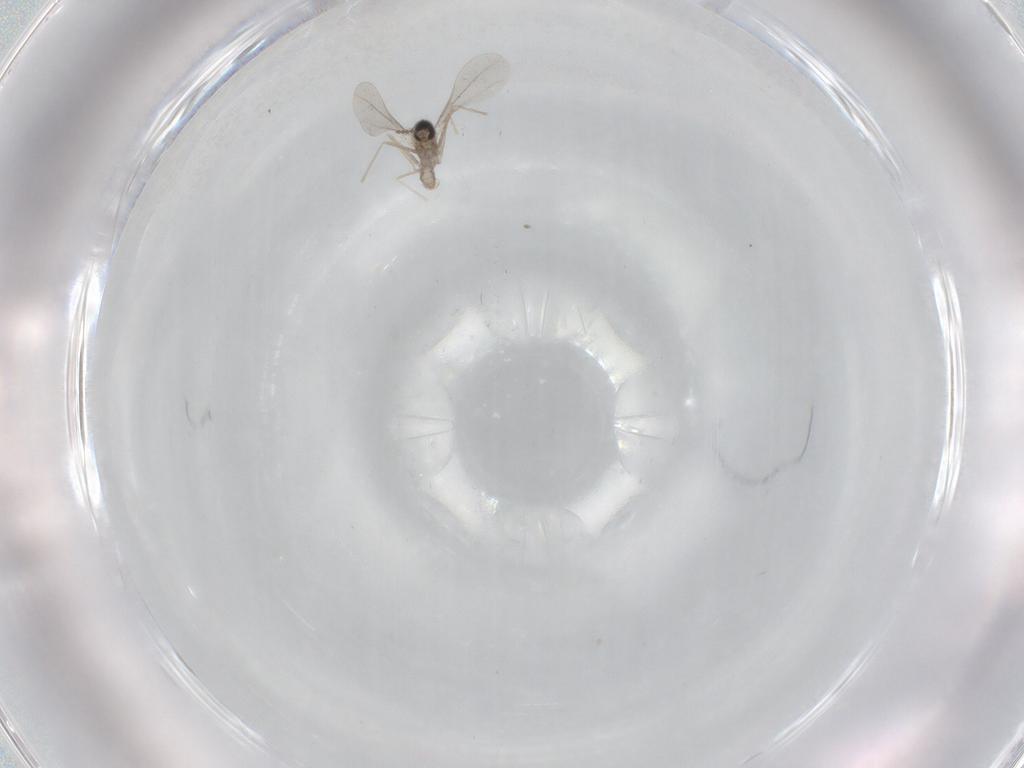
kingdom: Animalia
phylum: Arthropoda
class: Insecta
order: Diptera
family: Cecidomyiidae
